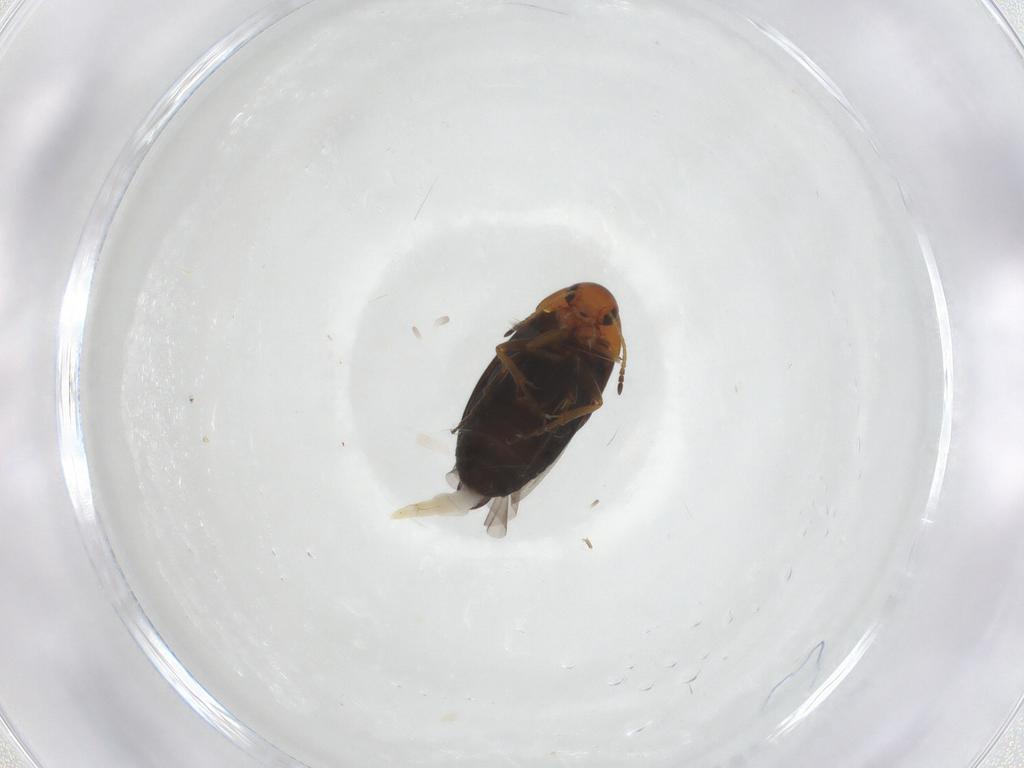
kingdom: Animalia
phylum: Arthropoda
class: Insecta
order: Coleoptera
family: Scraptiidae
